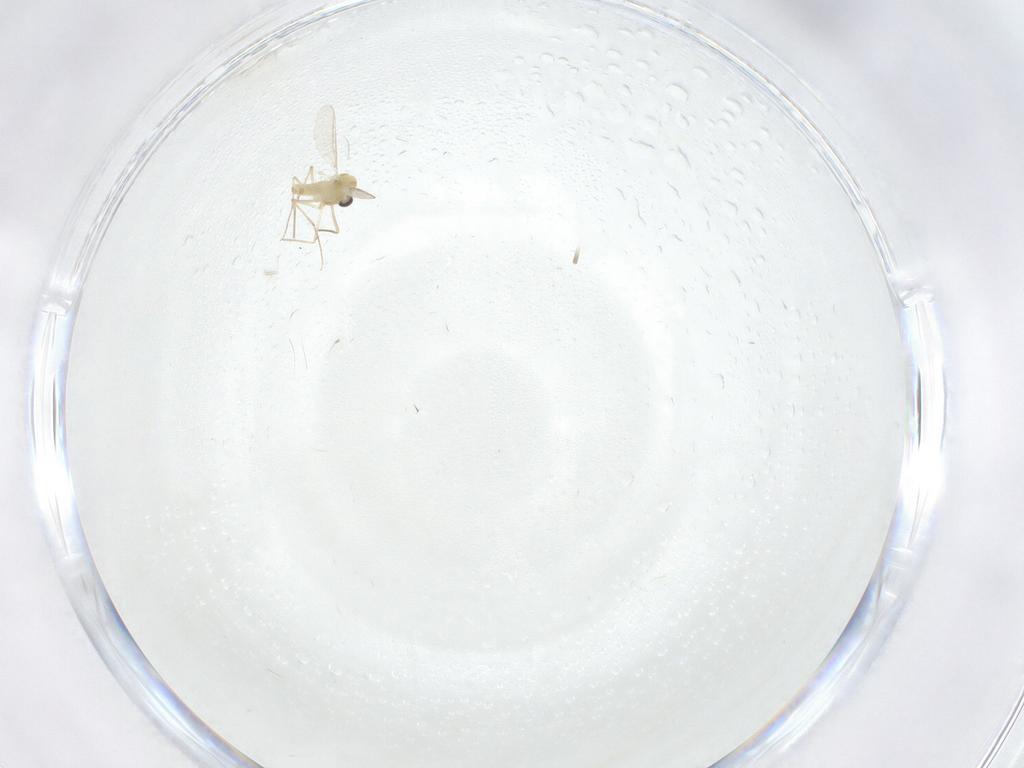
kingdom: Animalia
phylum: Arthropoda
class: Insecta
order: Diptera
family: Chironomidae
